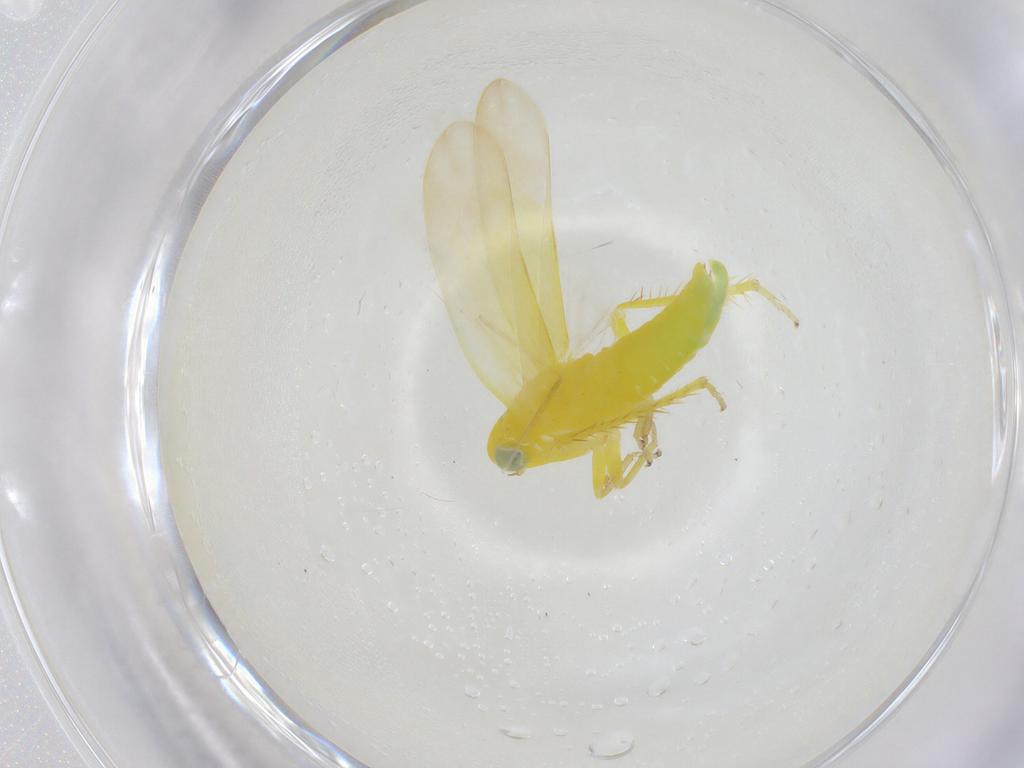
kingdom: Animalia
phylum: Arthropoda
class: Insecta
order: Hemiptera
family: Cicadellidae
